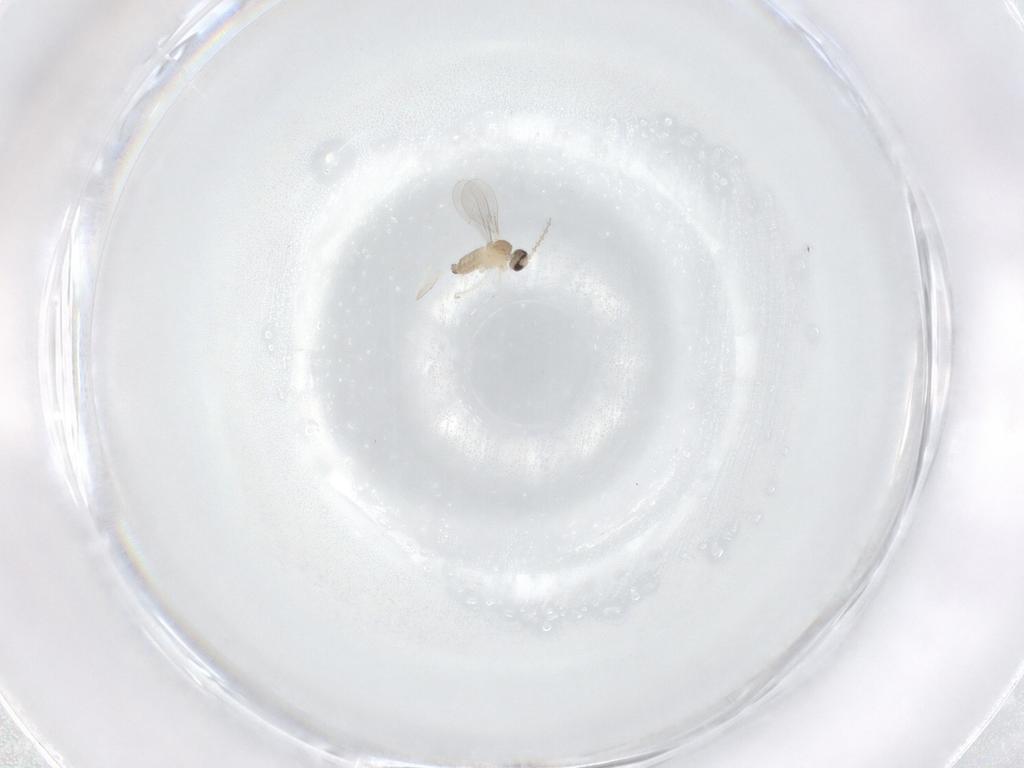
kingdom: Animalia
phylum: Arthropoda
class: Insecta
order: Diptera
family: Cecidomyiidae
